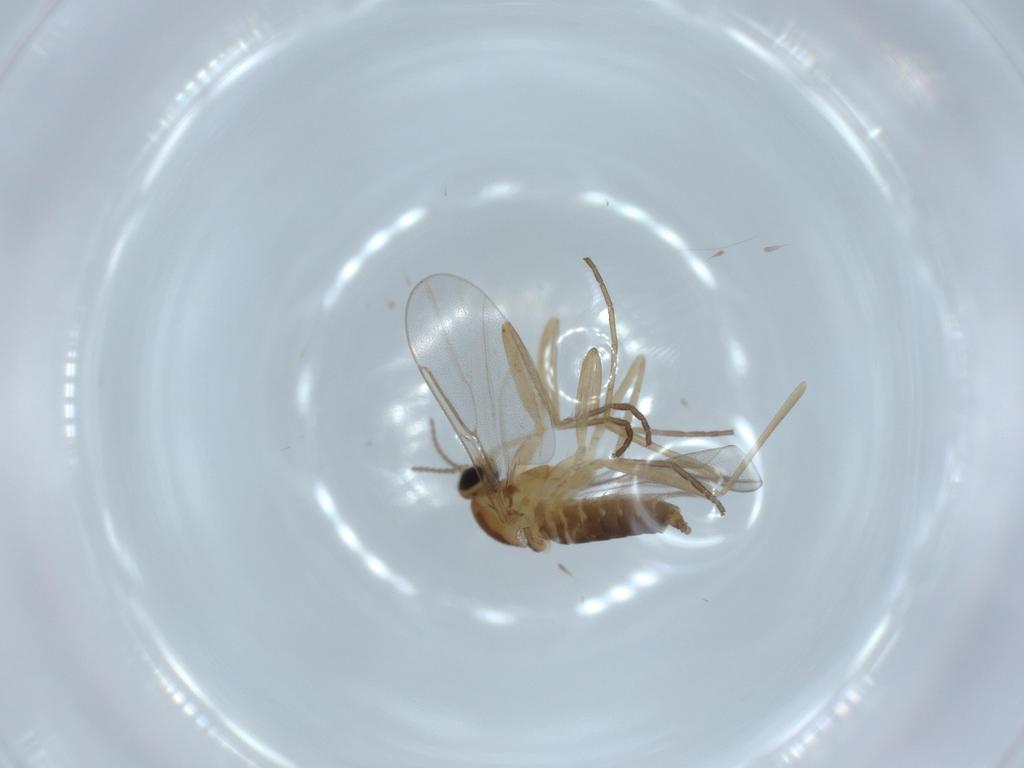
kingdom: Animalia
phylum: Arthropoda
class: Insecta
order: Diptera
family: Cecidomyiidae
